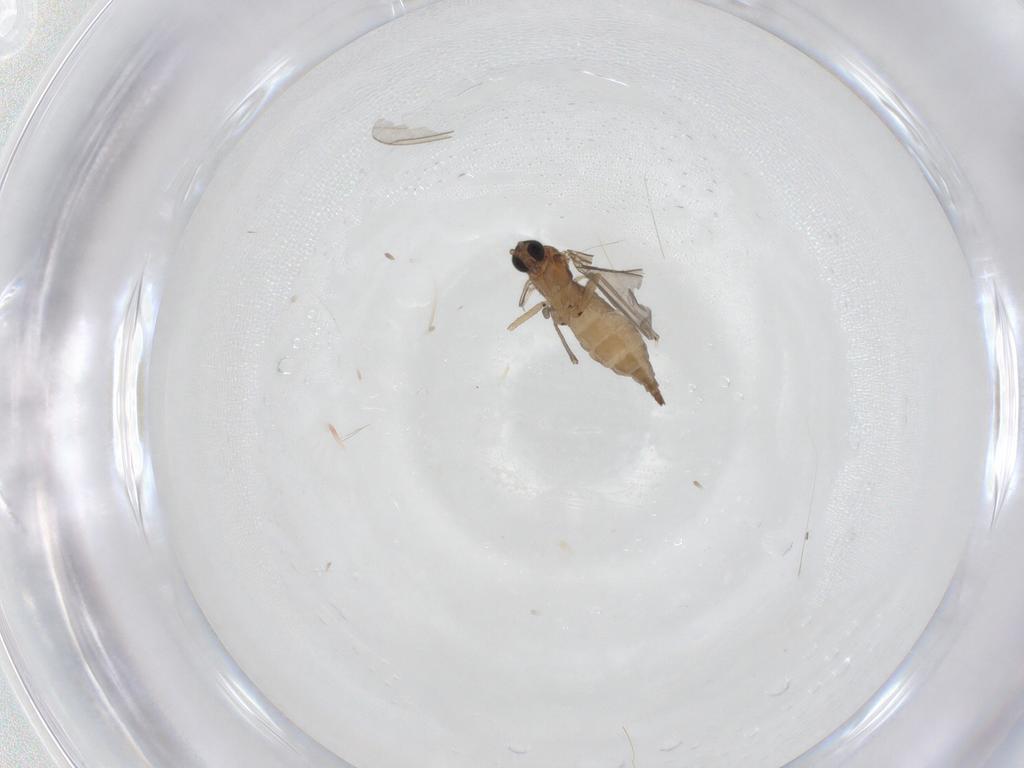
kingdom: Animalia
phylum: Arthropoda
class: Insecta
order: Diptera
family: Sciaridae
